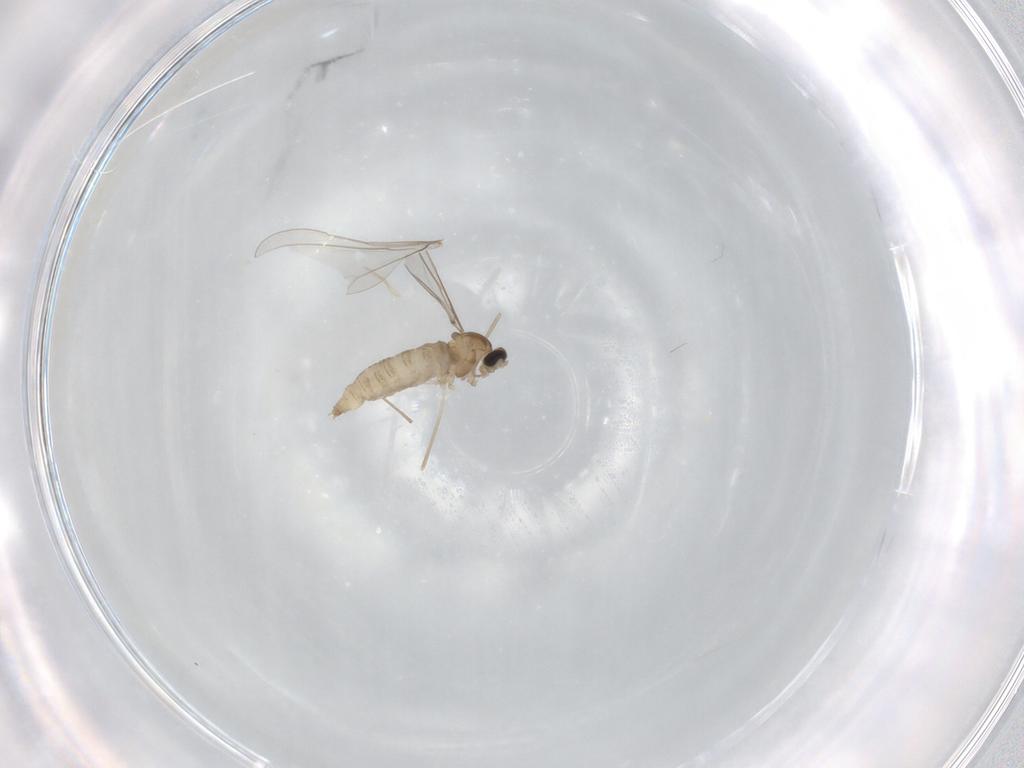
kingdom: Animalia
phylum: Arthropoda
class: Insecta
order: Diptera
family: Cecidomyiidae
